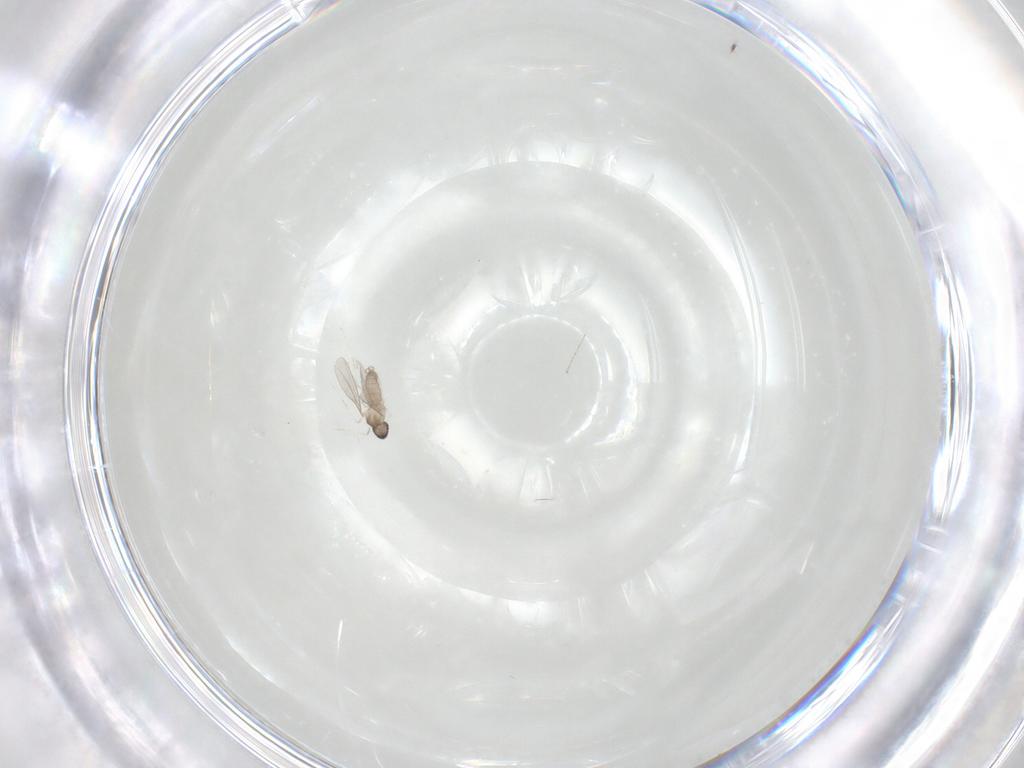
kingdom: Animalia
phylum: Arthropoda
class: Insecta
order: Diptera
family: Cecidomyiidae
